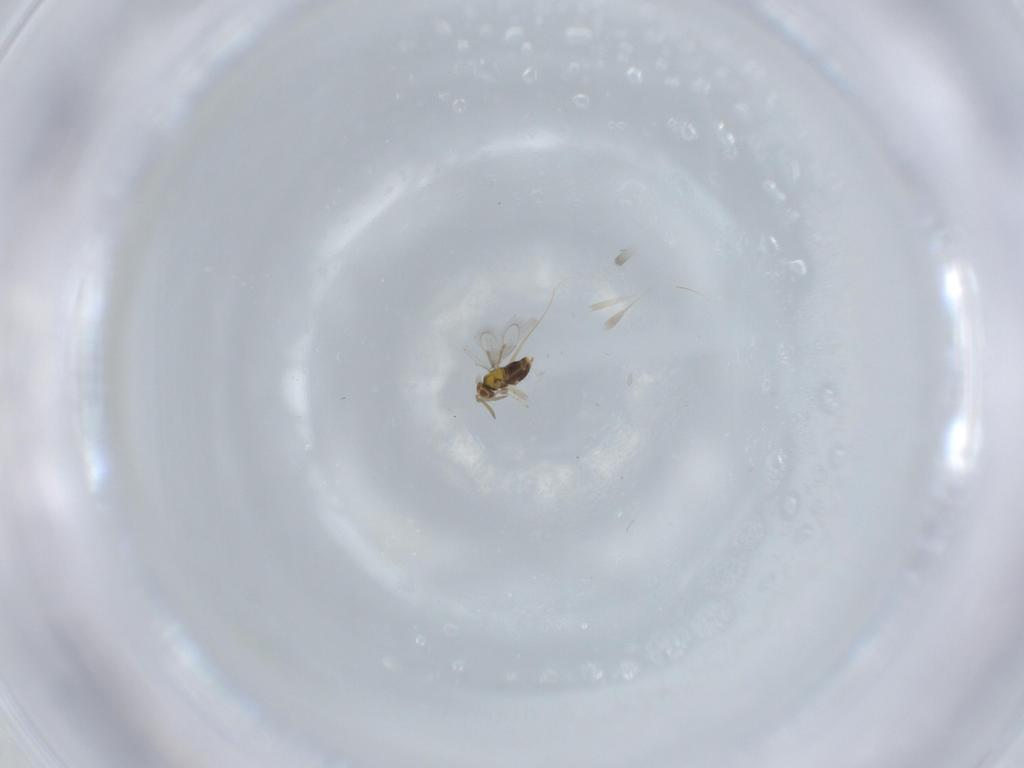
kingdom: Animalia
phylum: Arthropoda
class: Insecta
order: Hymenoptera
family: Aphelinidae
